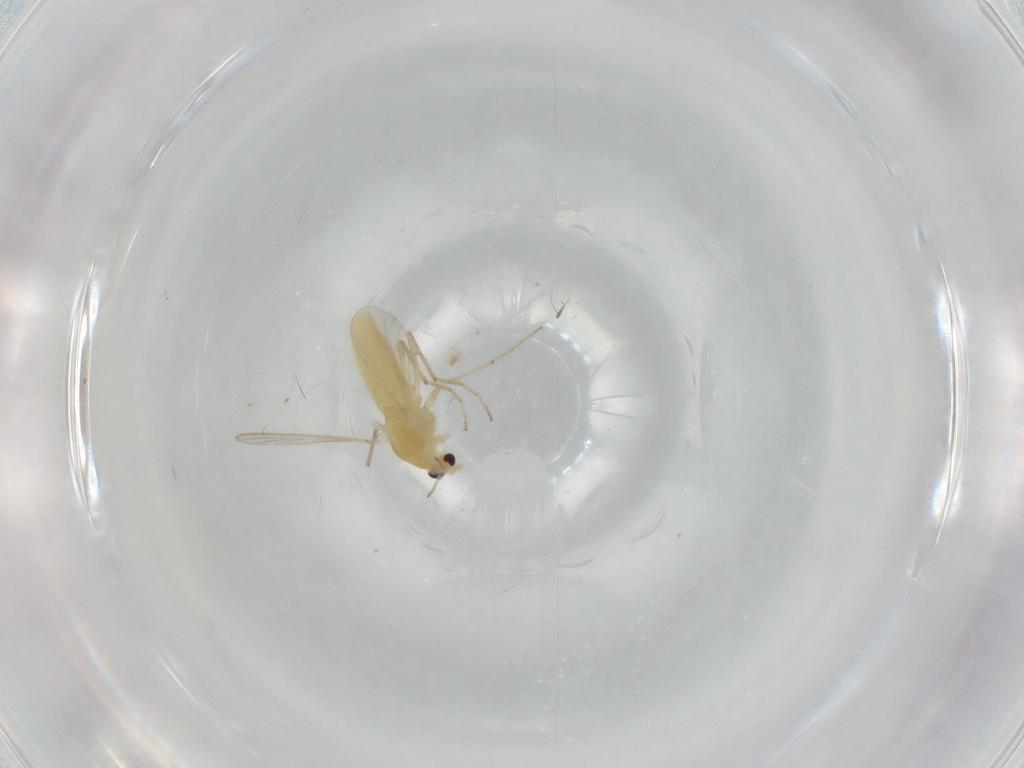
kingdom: Animalia
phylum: Arthropoda
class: Insecta
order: Diptera
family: Chironomidae
